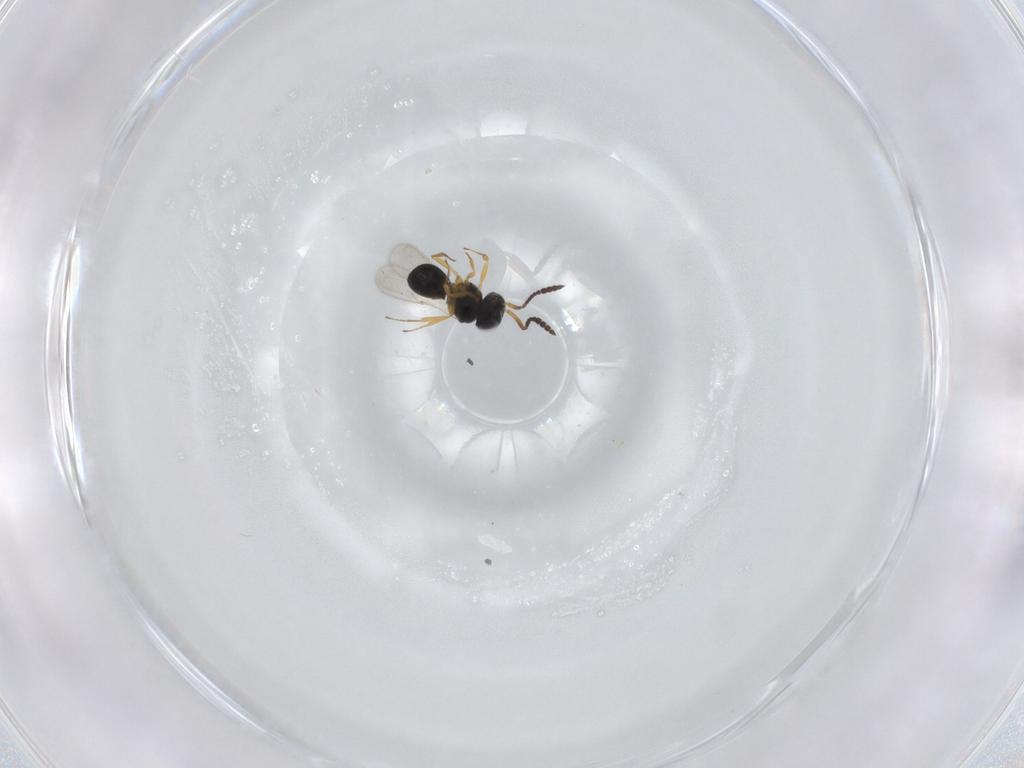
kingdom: Animalia
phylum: Arthropoda
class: Insecta
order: Hymenoptera
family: Scelionidae
